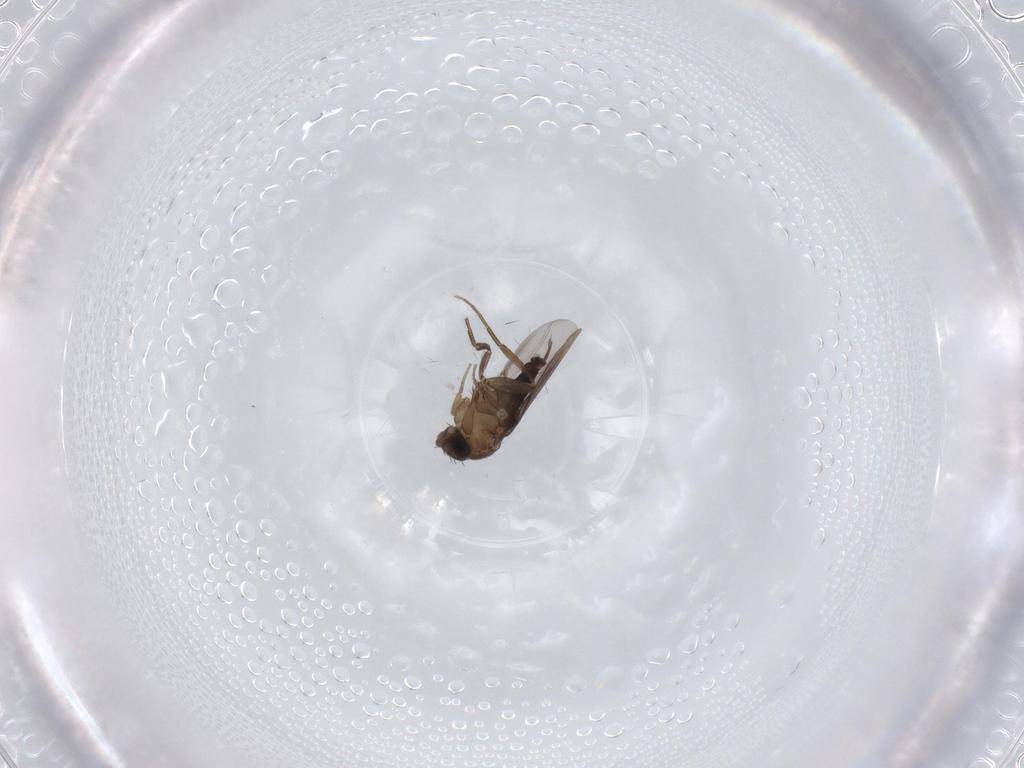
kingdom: Animalia
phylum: Arthropoda
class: Insecta
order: Diptera
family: Phoridae
